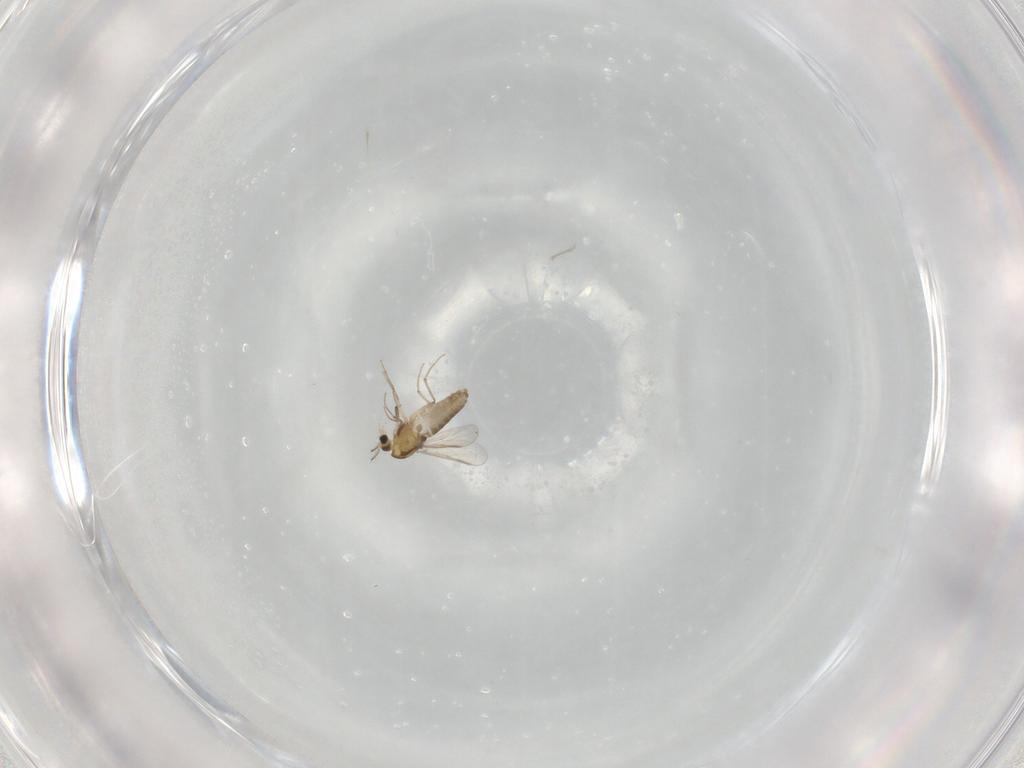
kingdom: Animalia
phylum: Arthropoda
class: Insecta
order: Diptera
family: Chironomidae
